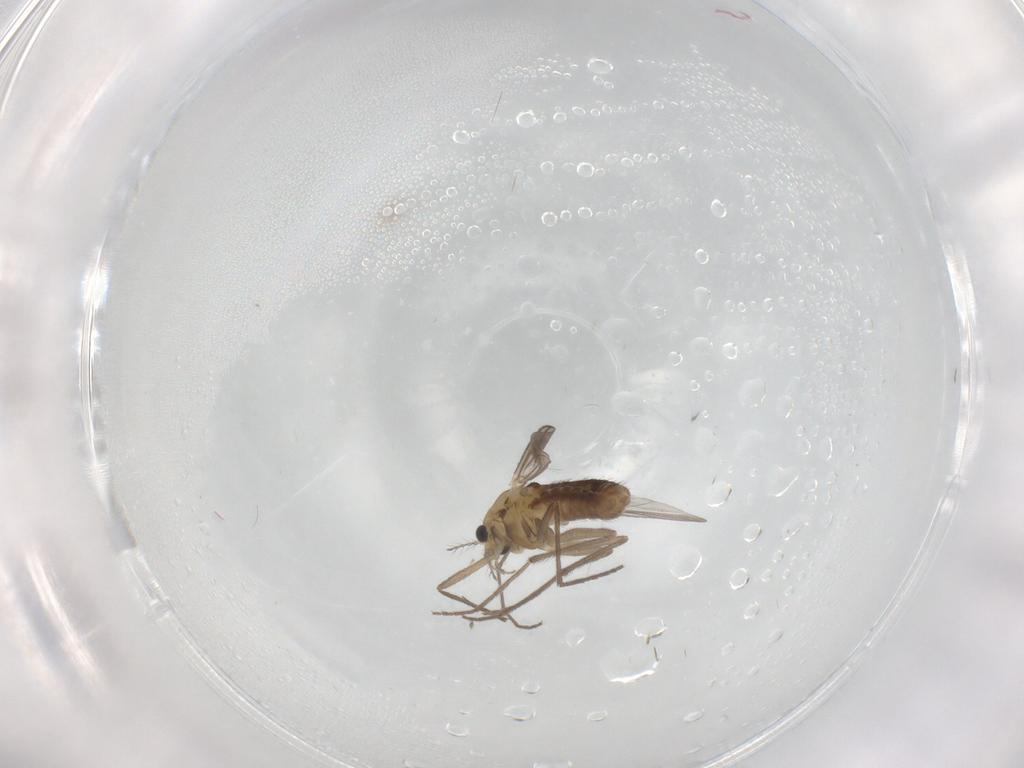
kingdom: Animalia
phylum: Arthropoda
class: Insecta
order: Diptera
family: Chironomidae
